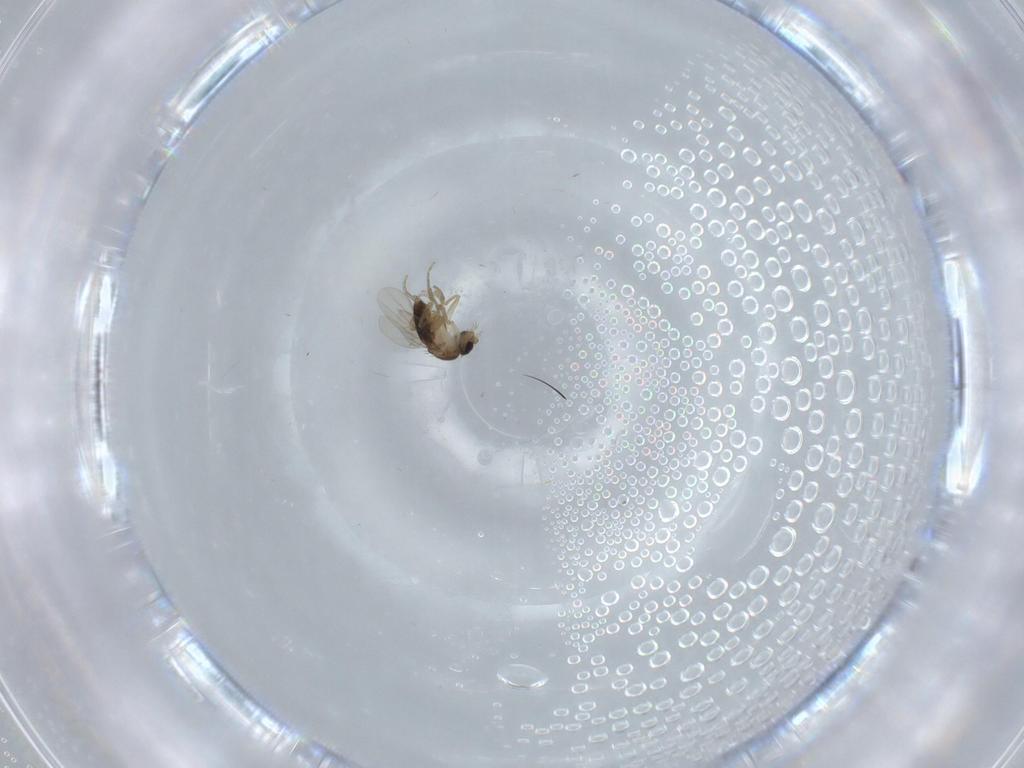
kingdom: Animalia
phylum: Arthropoda
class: Insecta
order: Diptera
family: Phoridae
